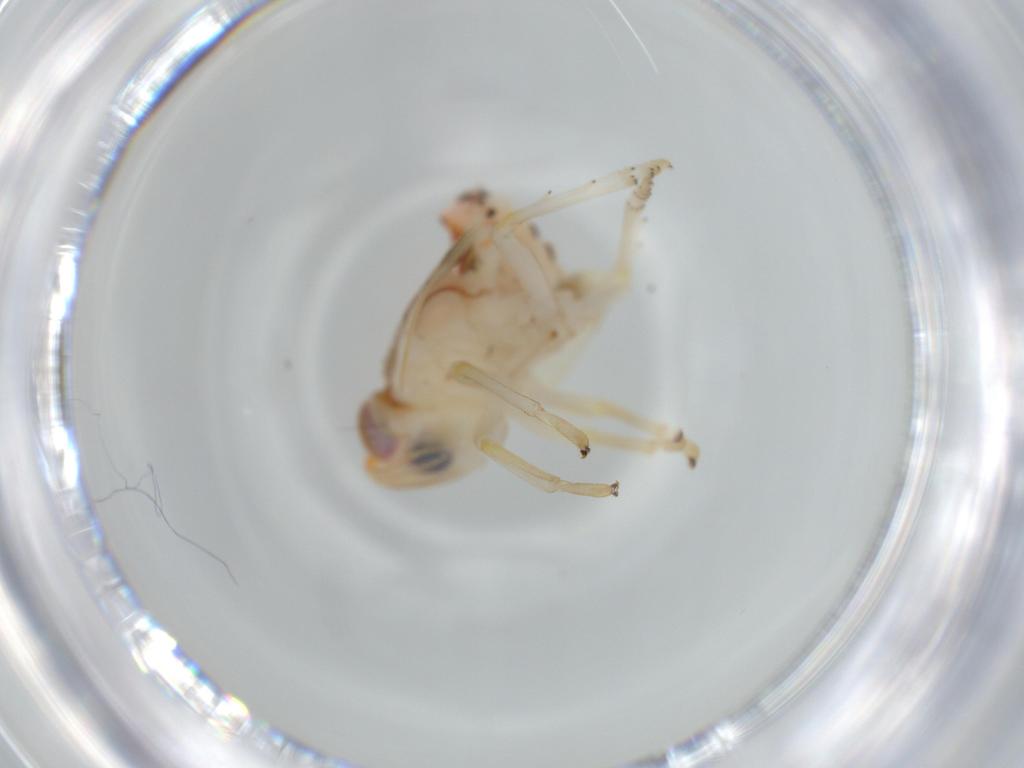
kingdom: Animalia
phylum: Arthropoda
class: Insecta
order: Hemiptera
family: Nogodinidae
